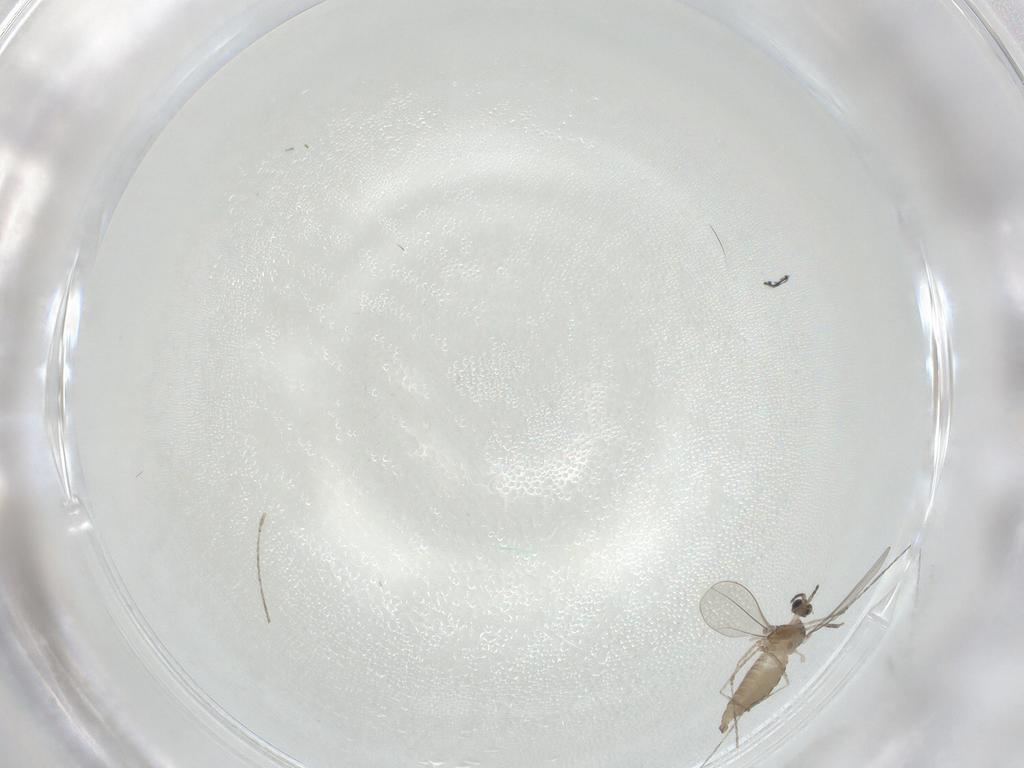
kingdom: Animalia
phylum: Arthropoda
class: Insecta
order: Diptera
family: Cecidomyiidae
